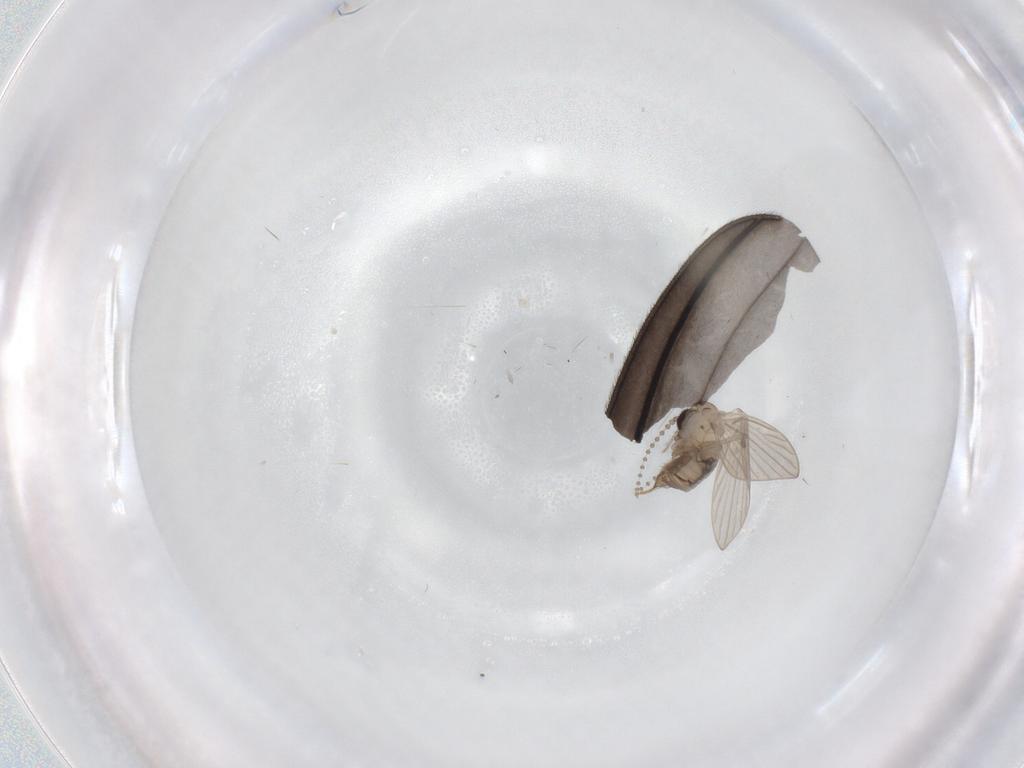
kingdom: Animalia
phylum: Arthropoda
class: Insecta
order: Diptera
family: Psychodidae
